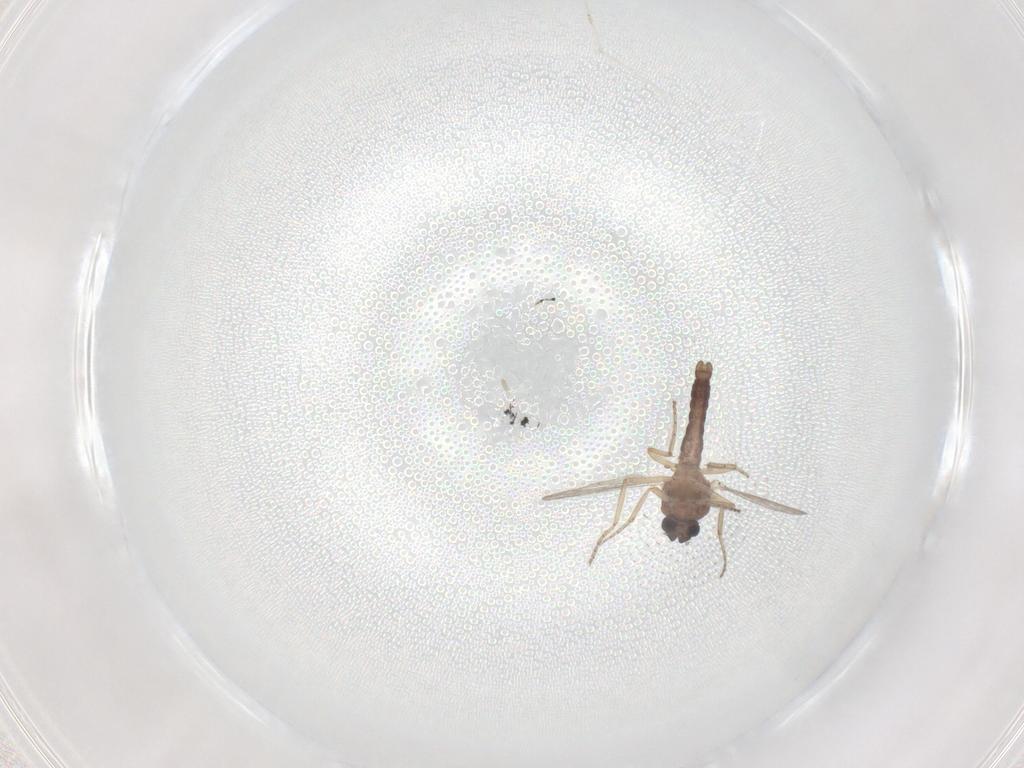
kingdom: Animalia
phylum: Arthropoda
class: Insecta
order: Diptera
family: Ceratopogonidae
